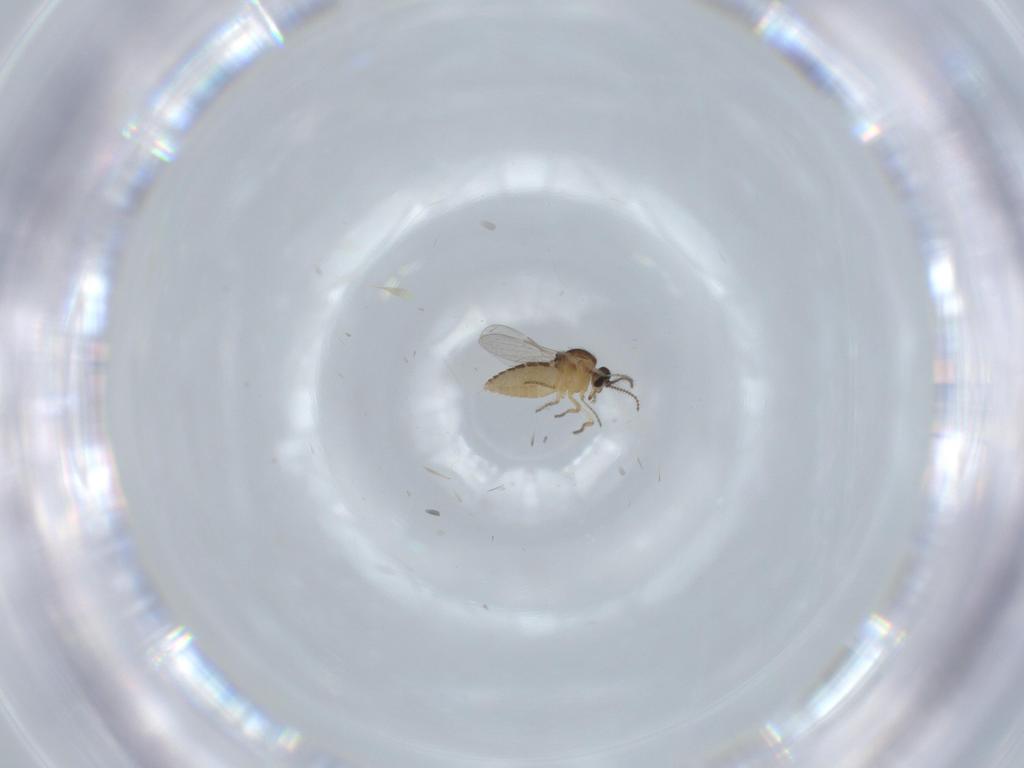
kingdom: Animalia
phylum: Arthropoda
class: Insecta
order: Diptera
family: Ceratopogonidae
